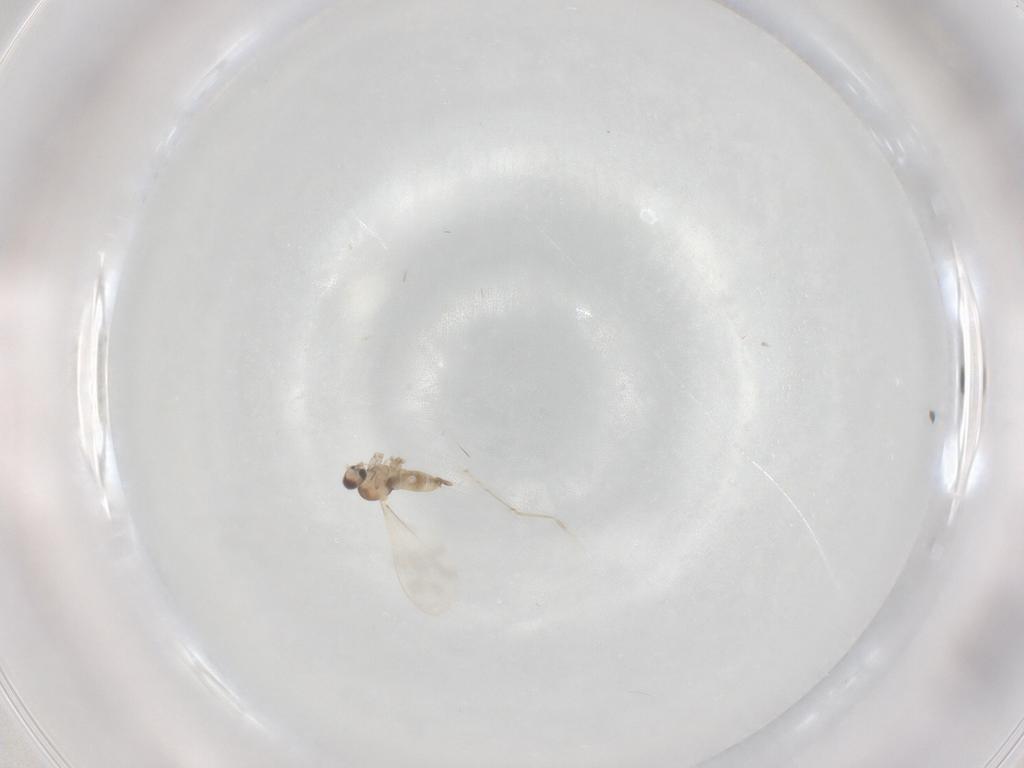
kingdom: Animalia
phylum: Arthropoda
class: Insecta
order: Diptera
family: Cecidomyiidae
